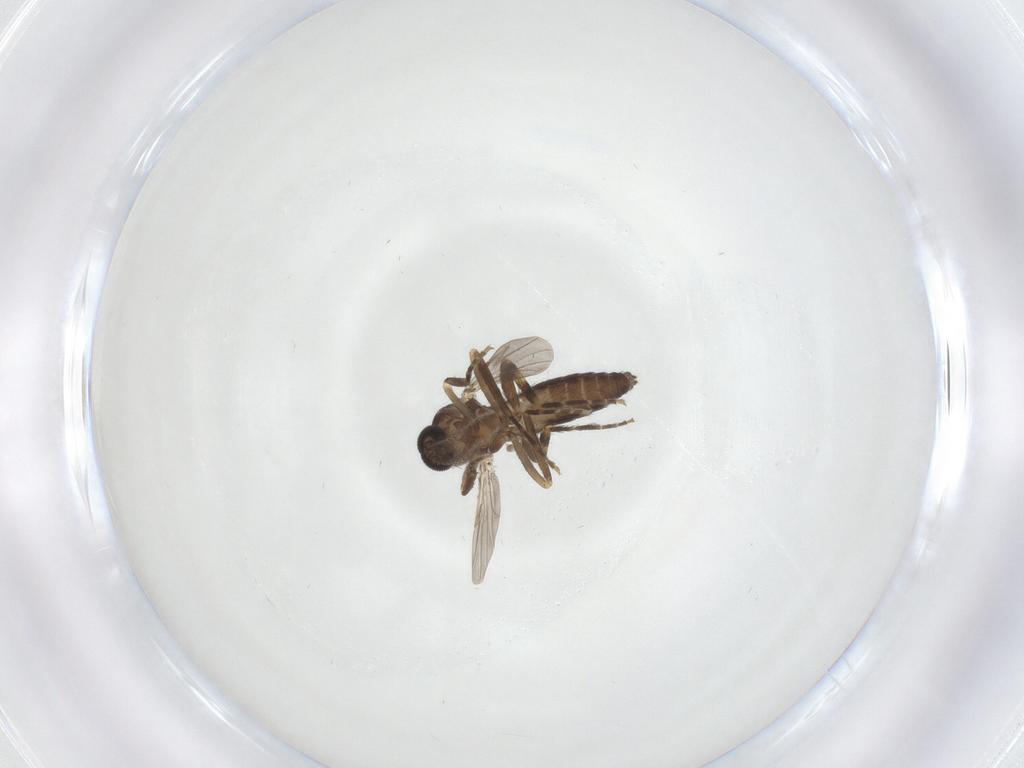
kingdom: Animalia
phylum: Arthropoda
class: Insecta
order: Diptera
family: Ceratopogonidae
